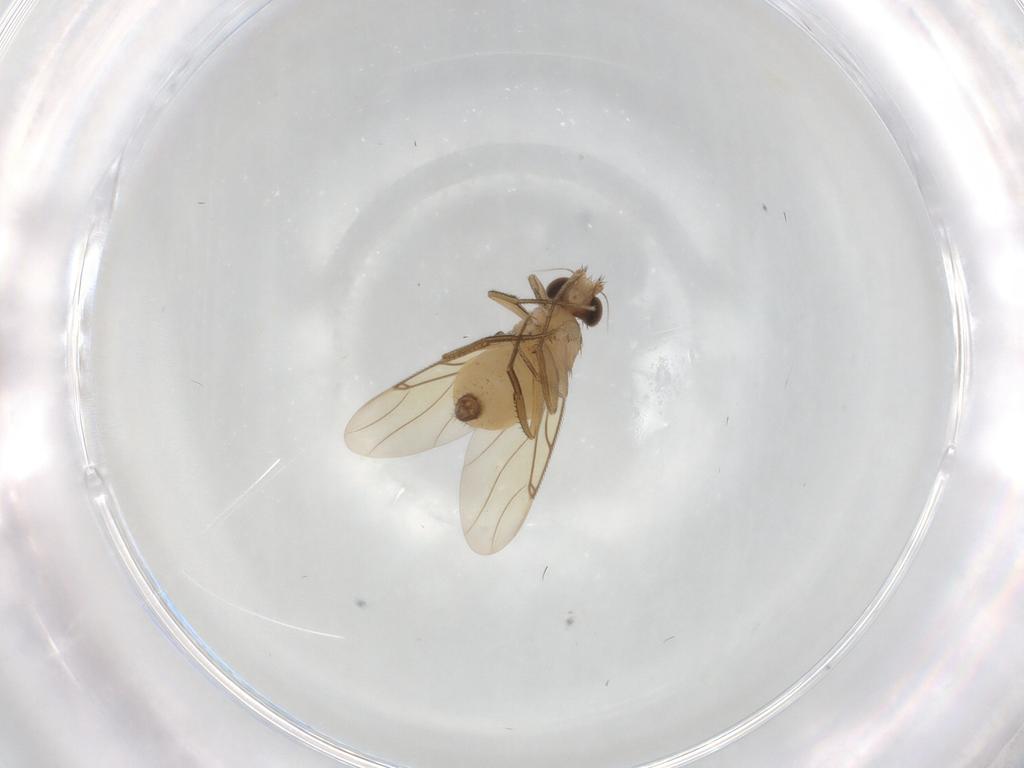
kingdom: Animalia
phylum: Arthropoda
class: Insecta
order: Diptera
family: Phoridae
